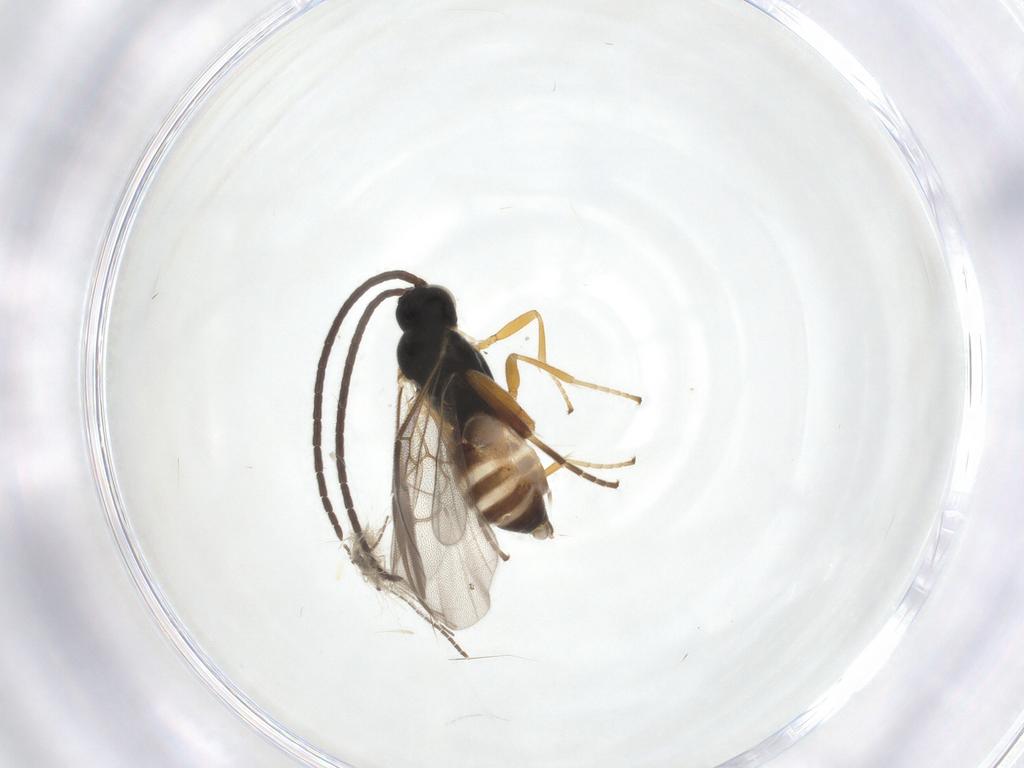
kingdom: Animalia
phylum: Arthropoda
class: Insecta
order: Hymenoptera
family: Braconidae
